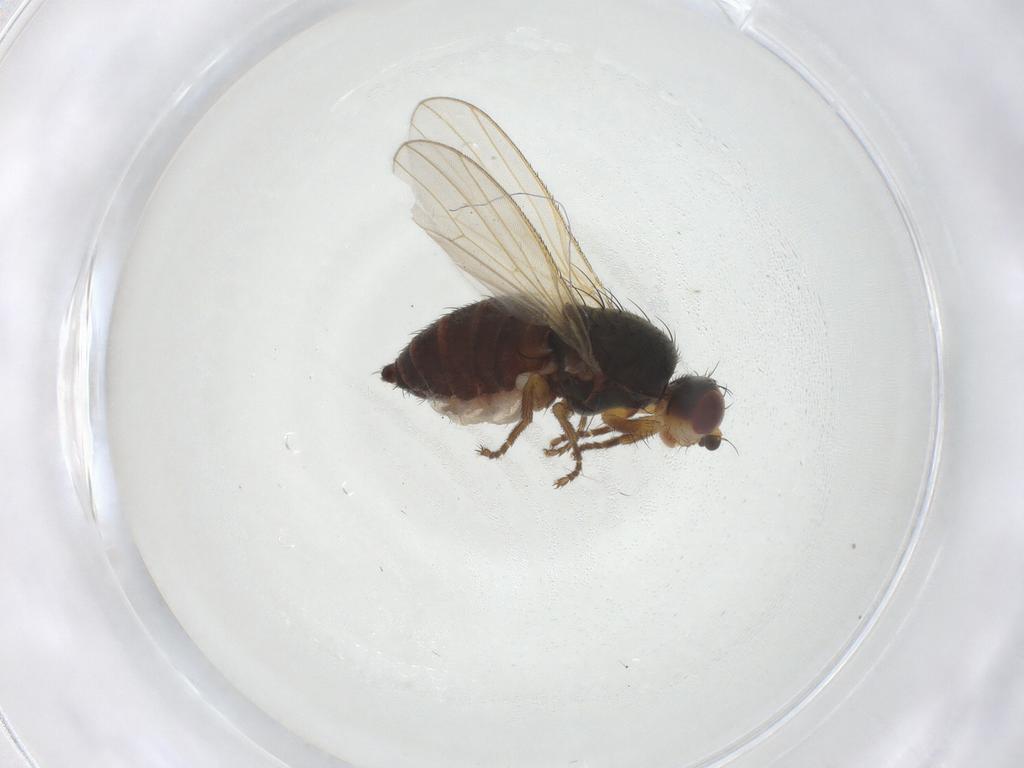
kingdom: Animalia
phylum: Arthropoda
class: Insecta
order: Diptera
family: Heleomyzidae
